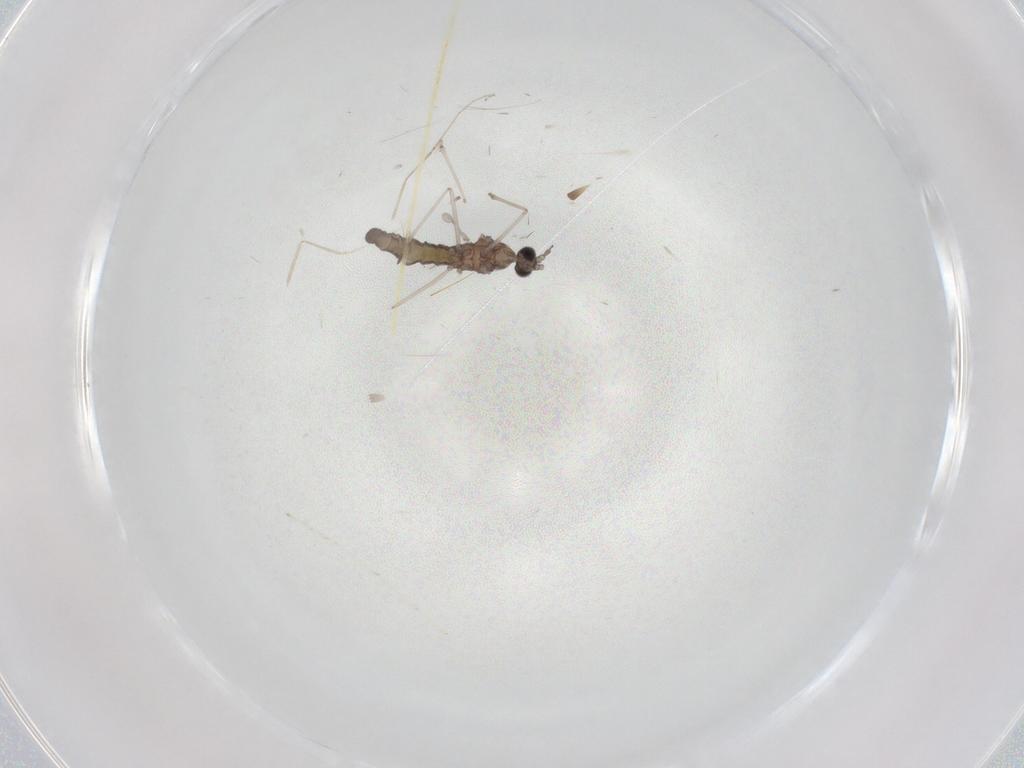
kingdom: Animalia
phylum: Arthropoda
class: Insecta
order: Diptera
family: Cecidomyiidae
